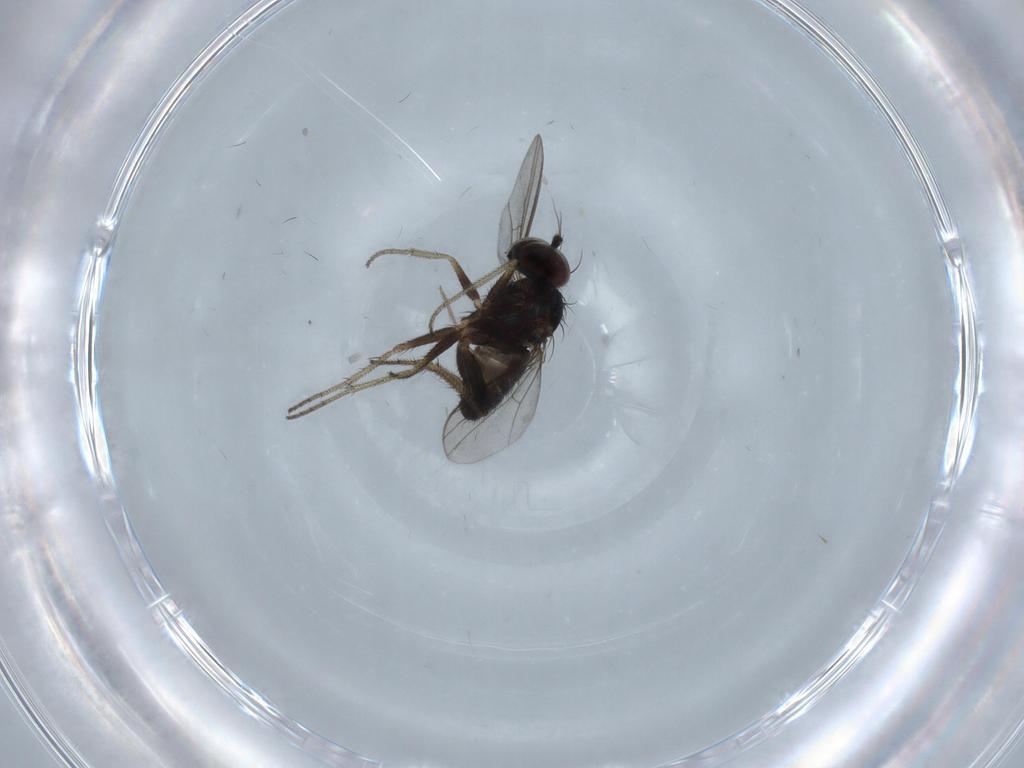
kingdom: Animalia
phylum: Arthropoda
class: Insecta
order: Diptera
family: Chironomidae
